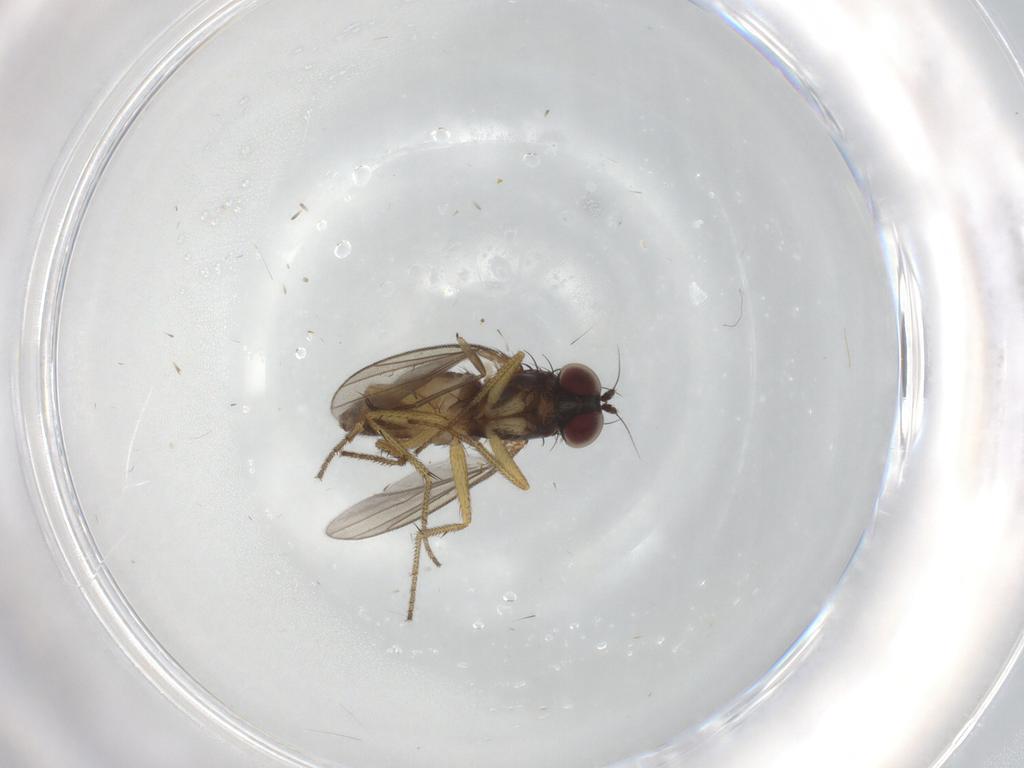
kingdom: Animalia
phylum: Arthropoda
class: Insecta
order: Diptera
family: Dolichopodidae
